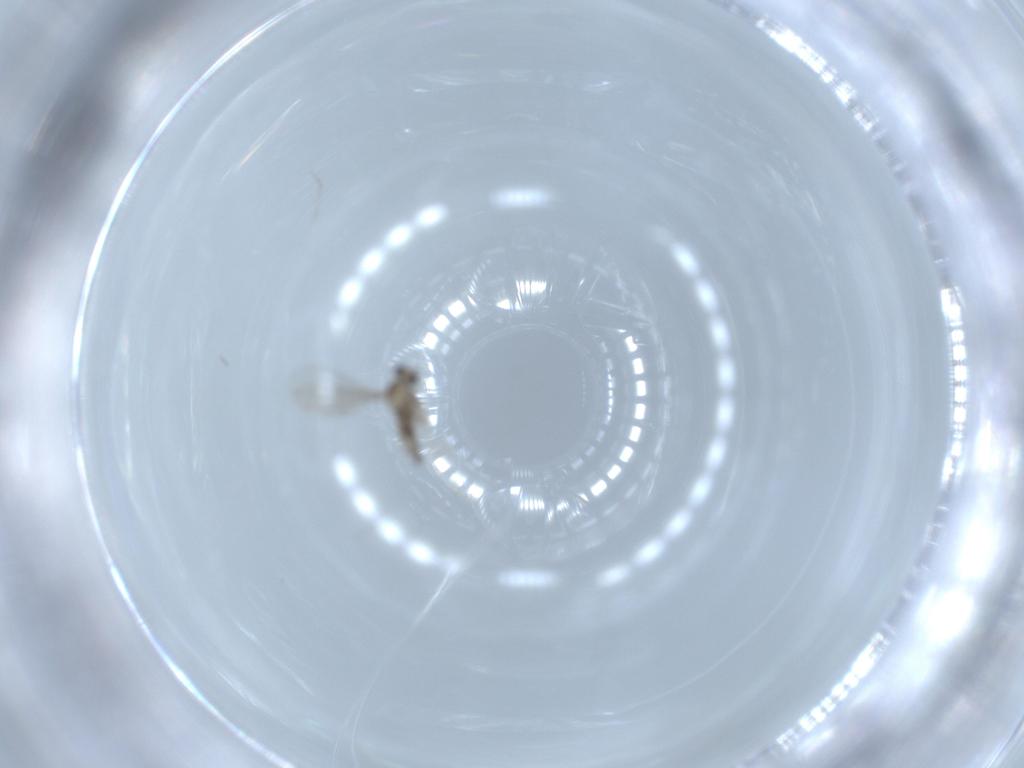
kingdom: Animalia
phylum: Arthropoda
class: Insecta
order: Diptera
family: Cecidomyiidae
